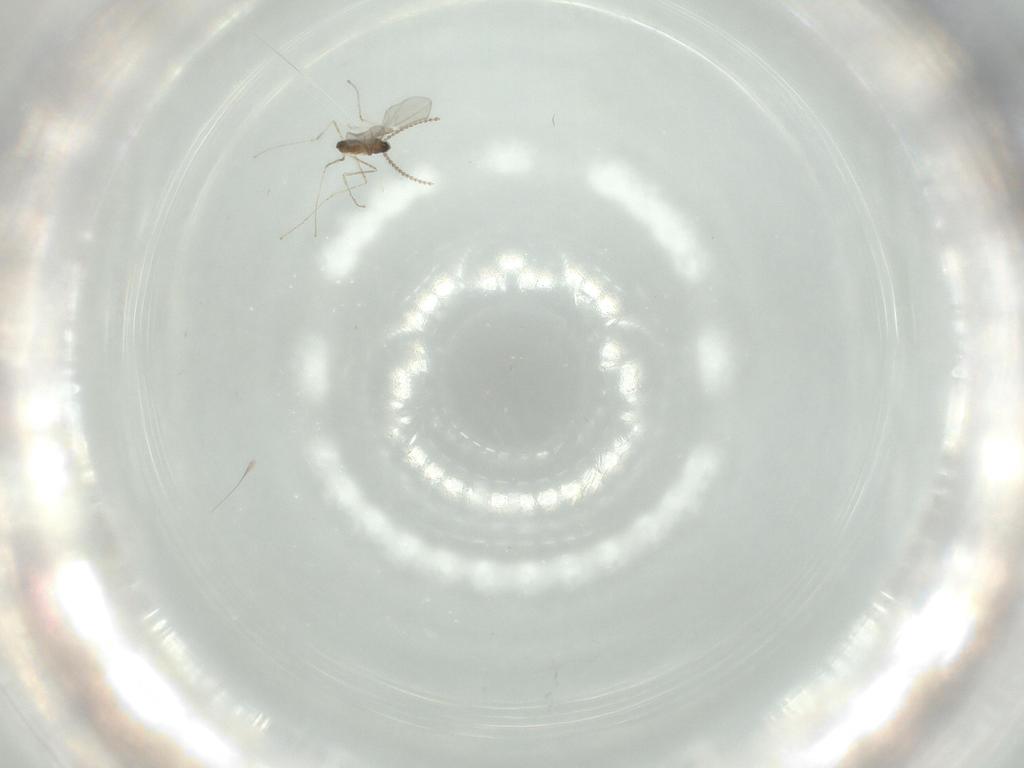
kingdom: Animalia
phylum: Arthropoda
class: Insecta
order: Diptera
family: Cecidomyiidae
